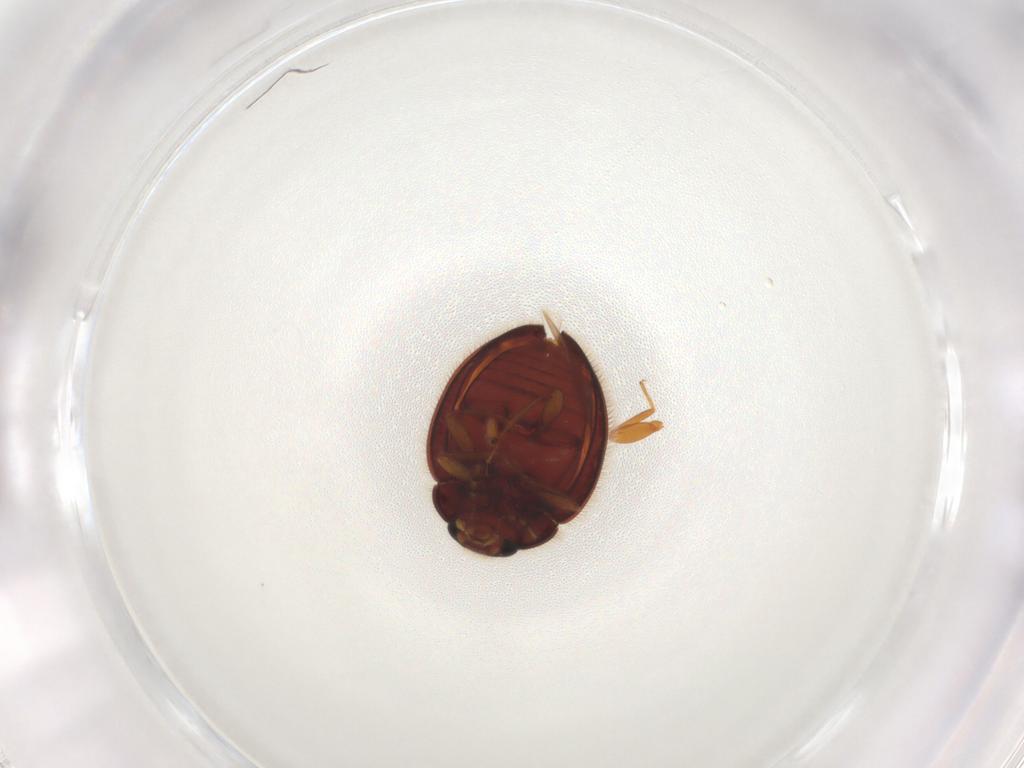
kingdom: Animalia
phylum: Arthropoda
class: Insecta
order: Coleoptera
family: Anamorphidae
